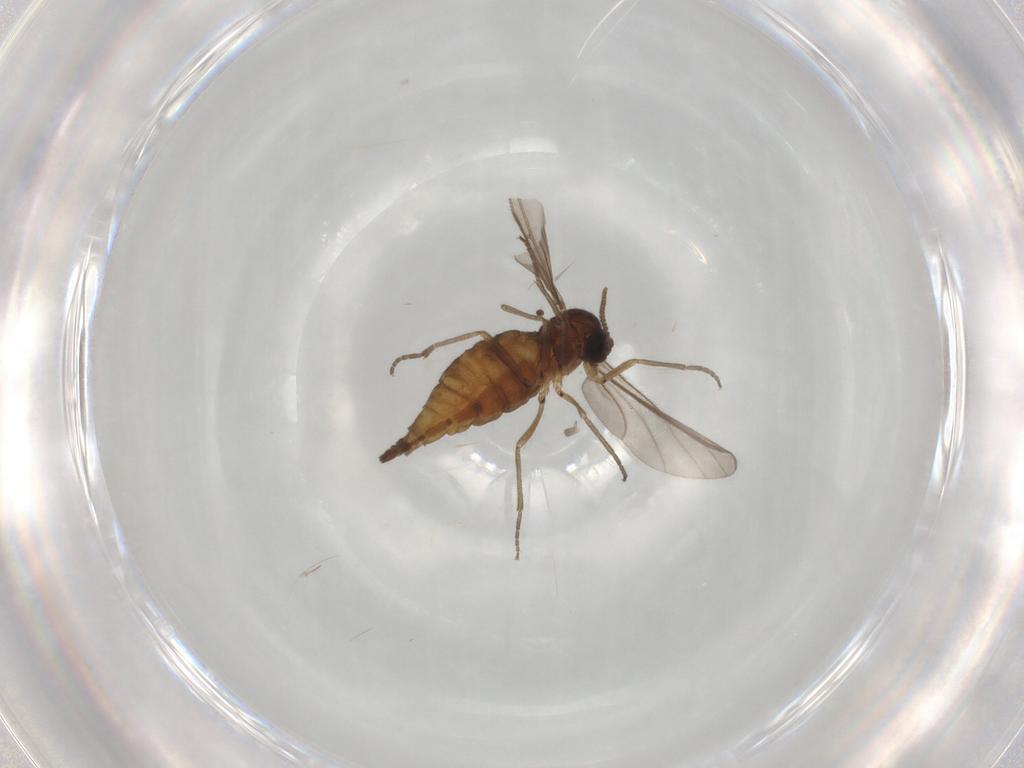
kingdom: Animalia
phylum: Arthropoda
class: Insecta
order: Diptera
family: Sciaridae
